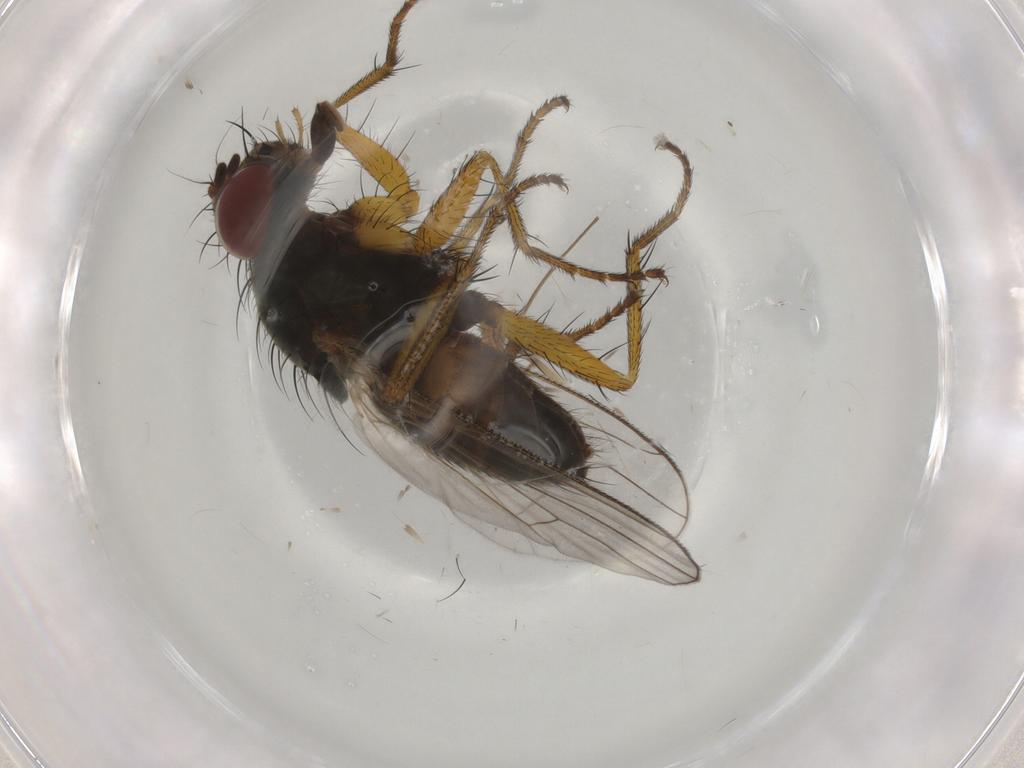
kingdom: Animalia
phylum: Arthropoda
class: Insecta
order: Diptera
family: Muscidae
